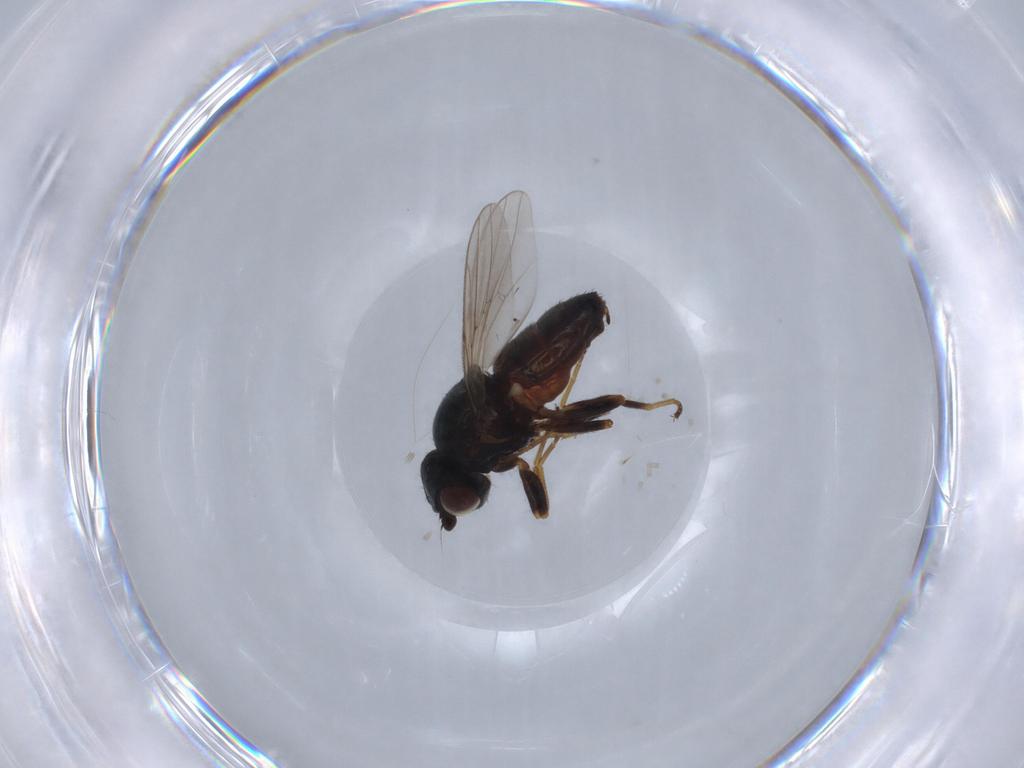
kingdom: Animalia
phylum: Arthropoda
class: Insecta
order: Diptera
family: Chloropidae
